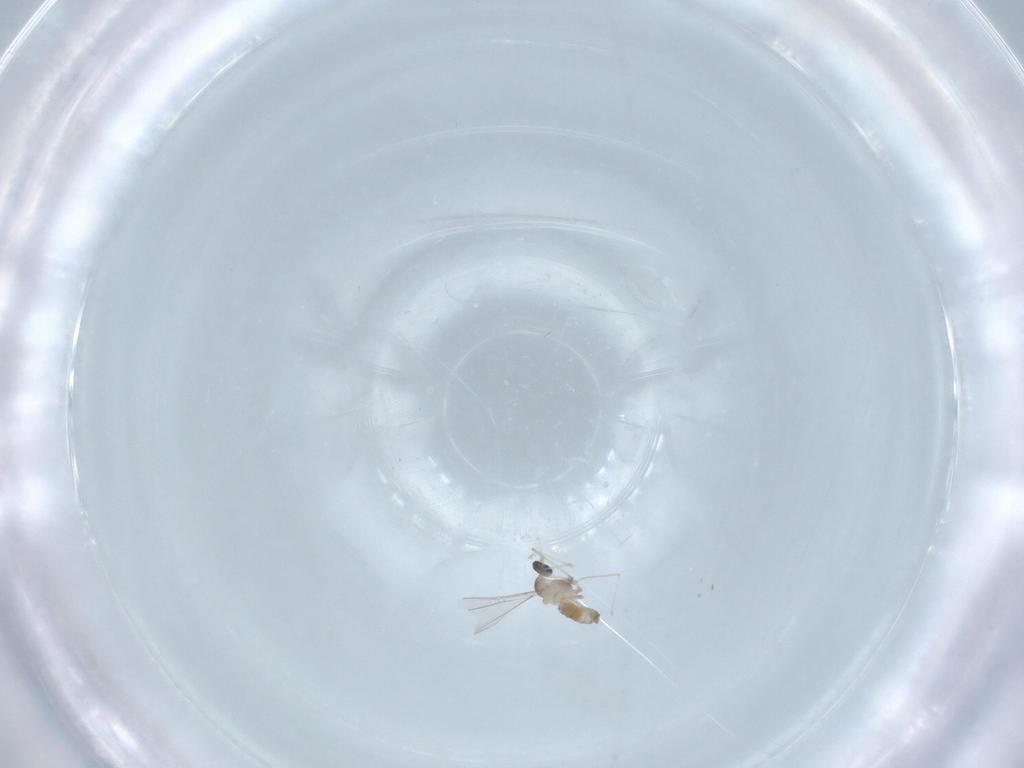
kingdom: Animalia
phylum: Arthropoda
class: Insecta
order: Diptera
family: Cecidomyiidae
